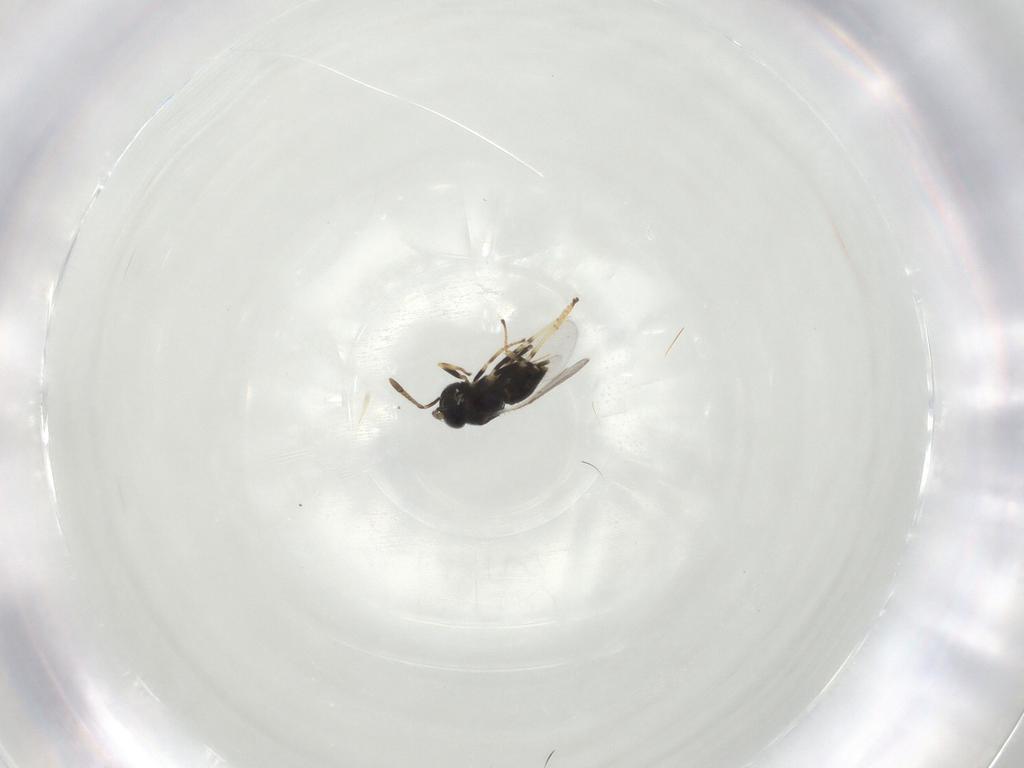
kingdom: Animalia
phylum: Arthropoda
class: Insecta
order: Hymenoptera
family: Encyrtidae
